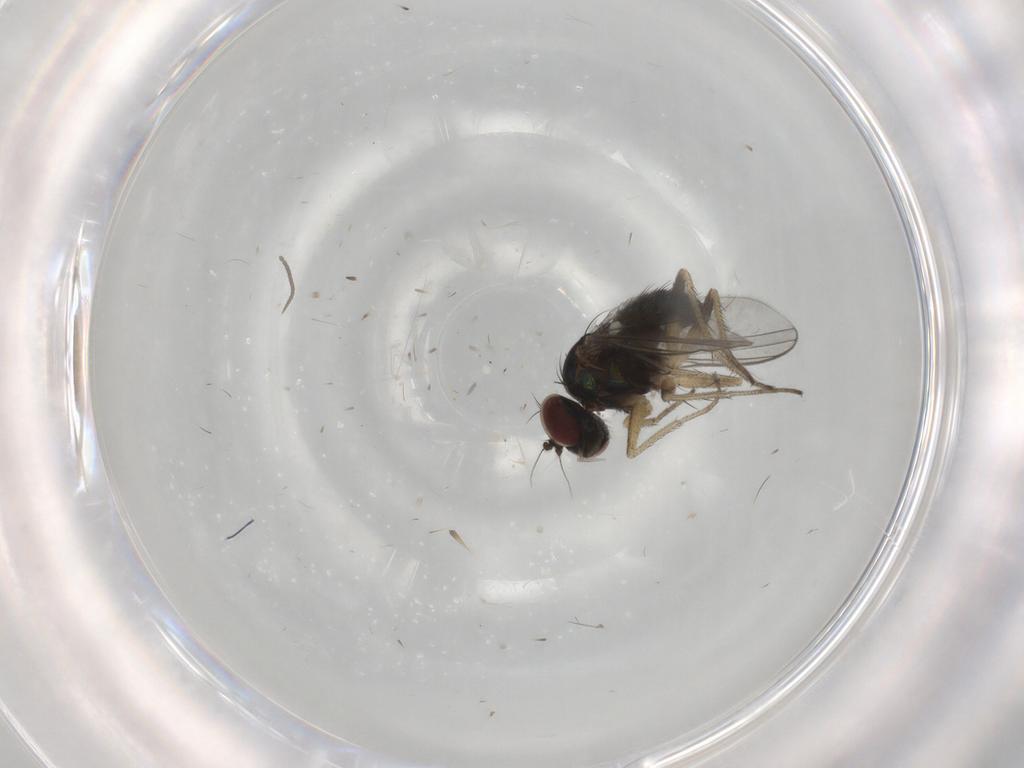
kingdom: Animalia
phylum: Arthropoda
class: Insecta
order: Diptera
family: Dolichopodidae
